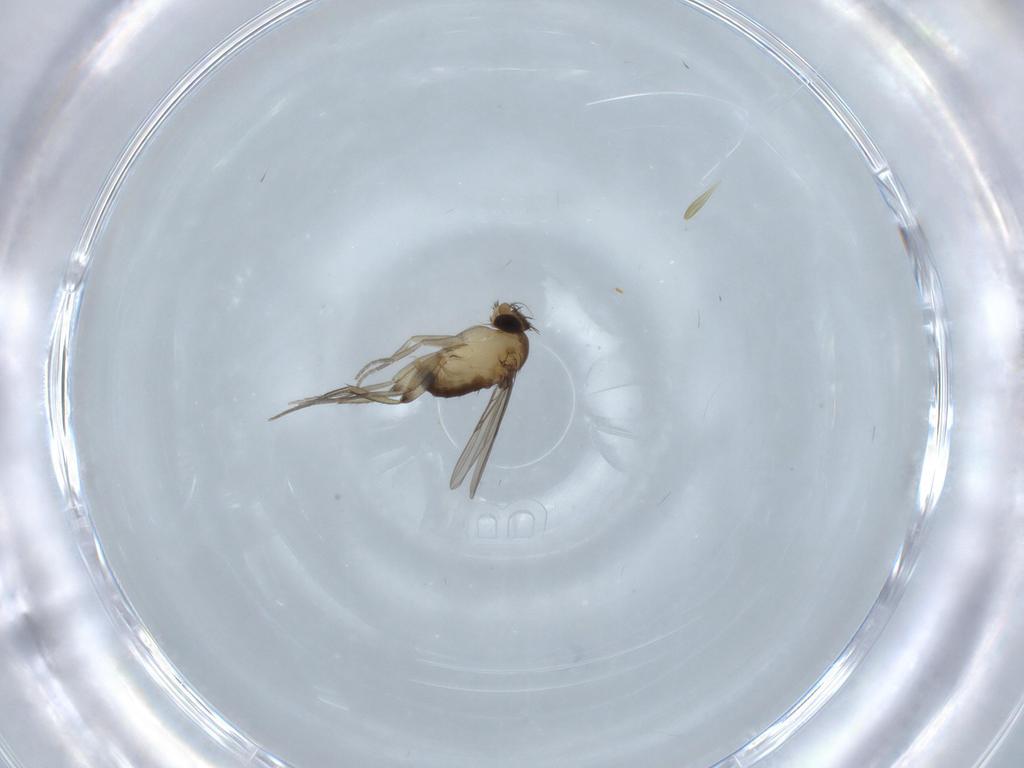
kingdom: Animalia
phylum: Arthropoda
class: Insecta
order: Diptera
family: Phoridae
